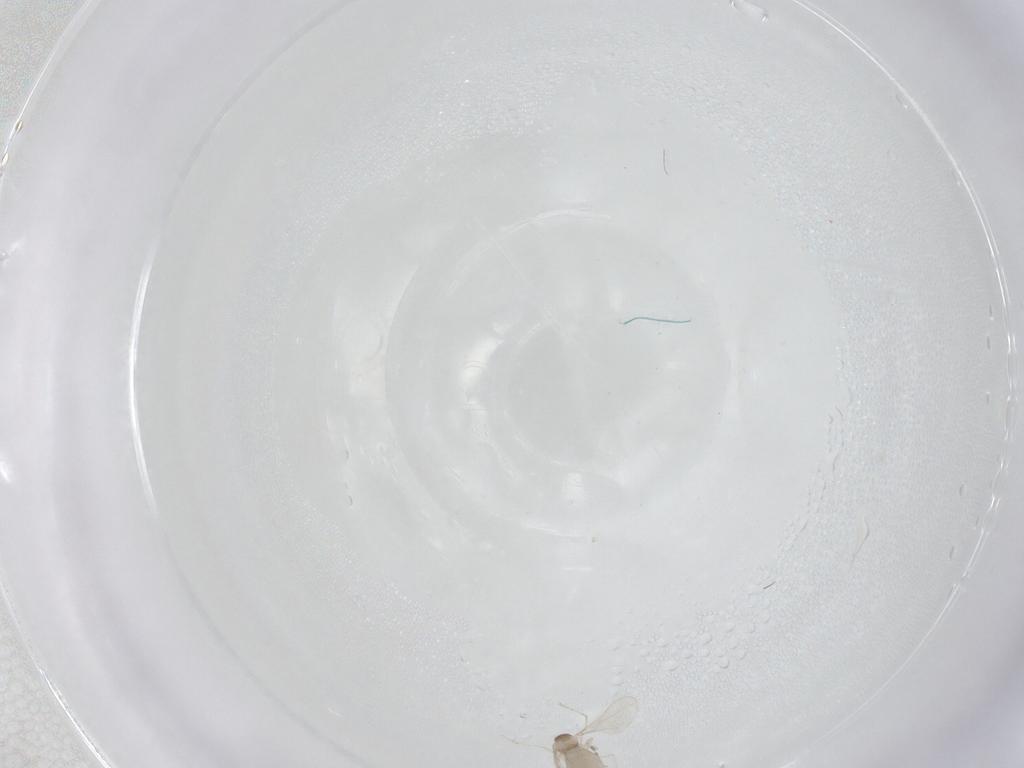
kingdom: Animalia
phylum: Arthropoda
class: Insecta
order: Diptera
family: Cecidomyiidae
